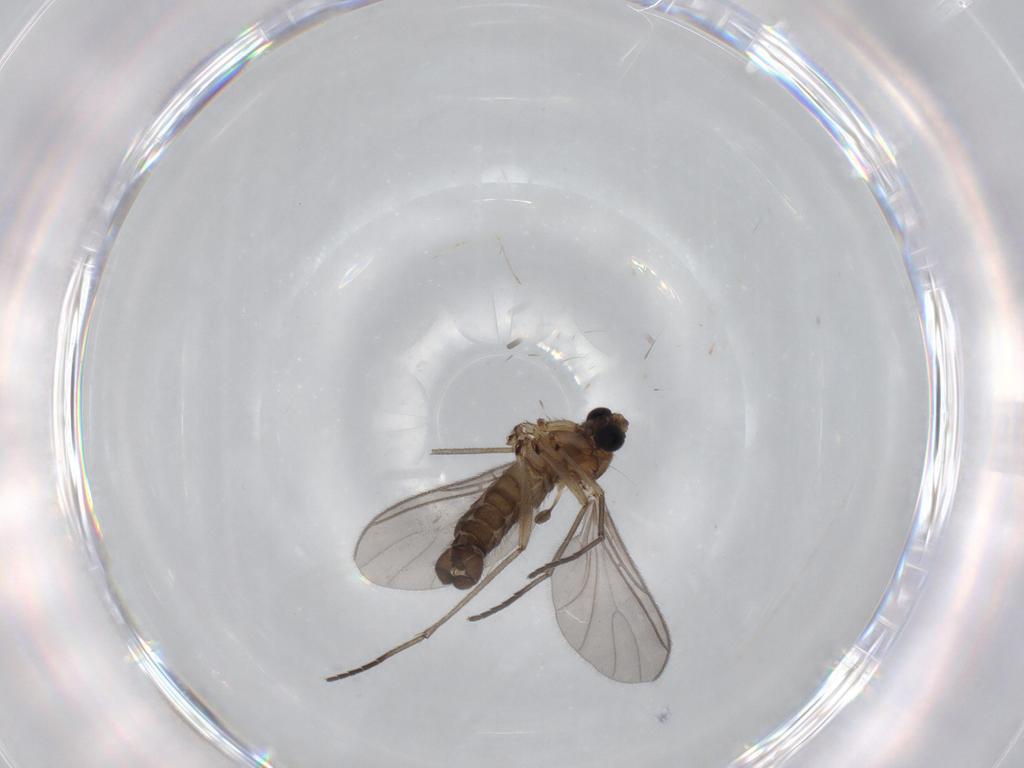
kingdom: Animalia
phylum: Arthropoda
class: Insecta
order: Diptera
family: Sciaridae
